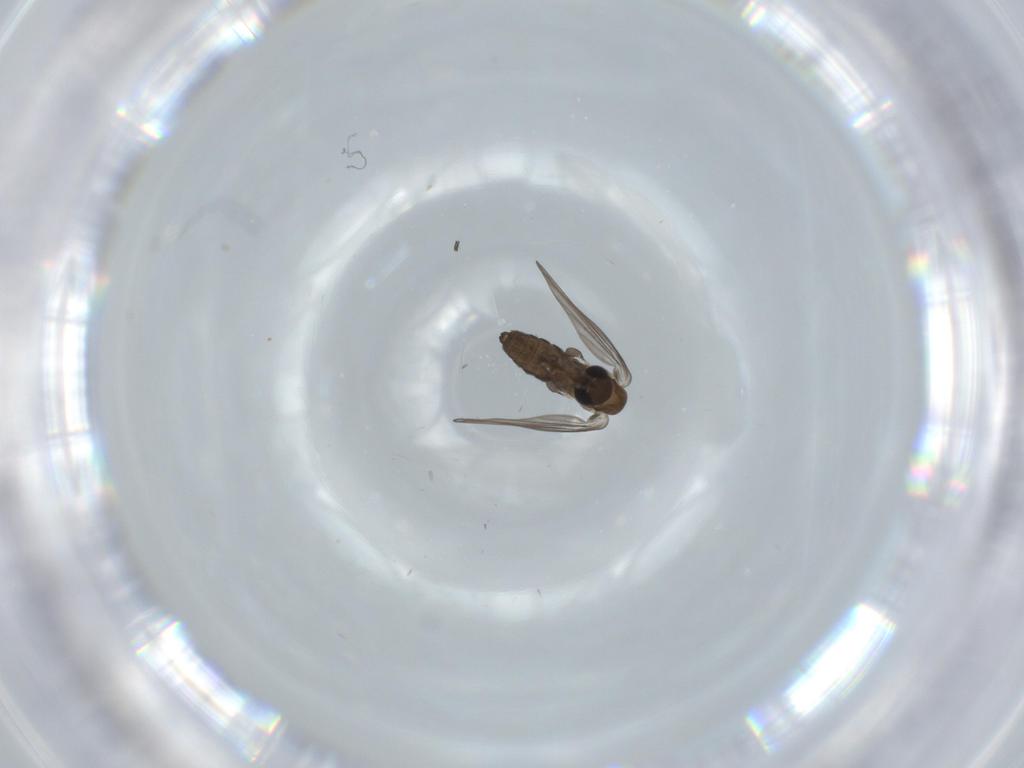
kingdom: Animalia
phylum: Arthropoda
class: Insecta
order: Diptera
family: Psychodidae
